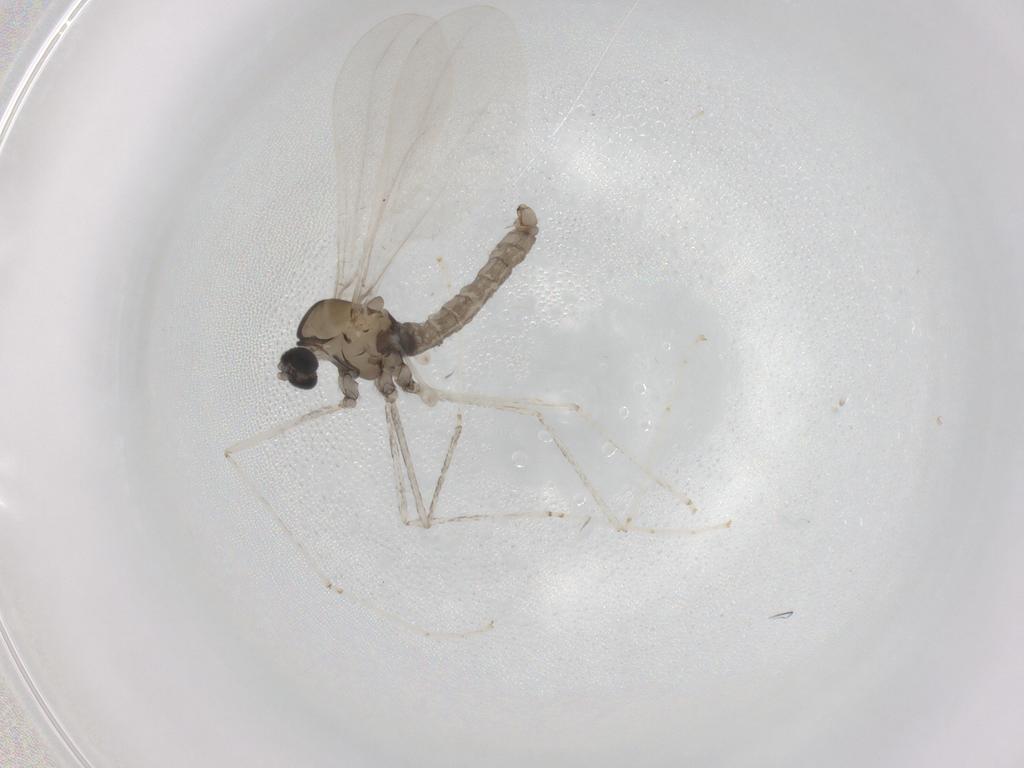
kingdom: Animalia
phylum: Arthropoda
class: Insecta
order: Diptera
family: Cecidomyiidae
